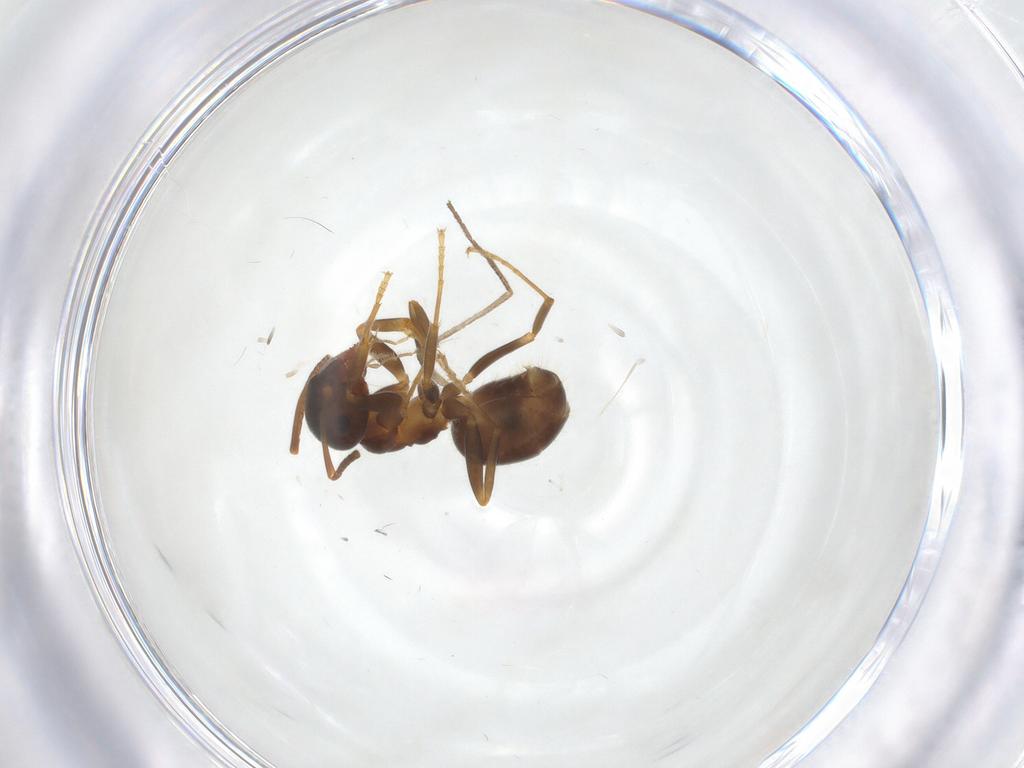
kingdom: Animalia
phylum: Arthropoda
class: Insecta
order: Hymenoptera
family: Formicidae
